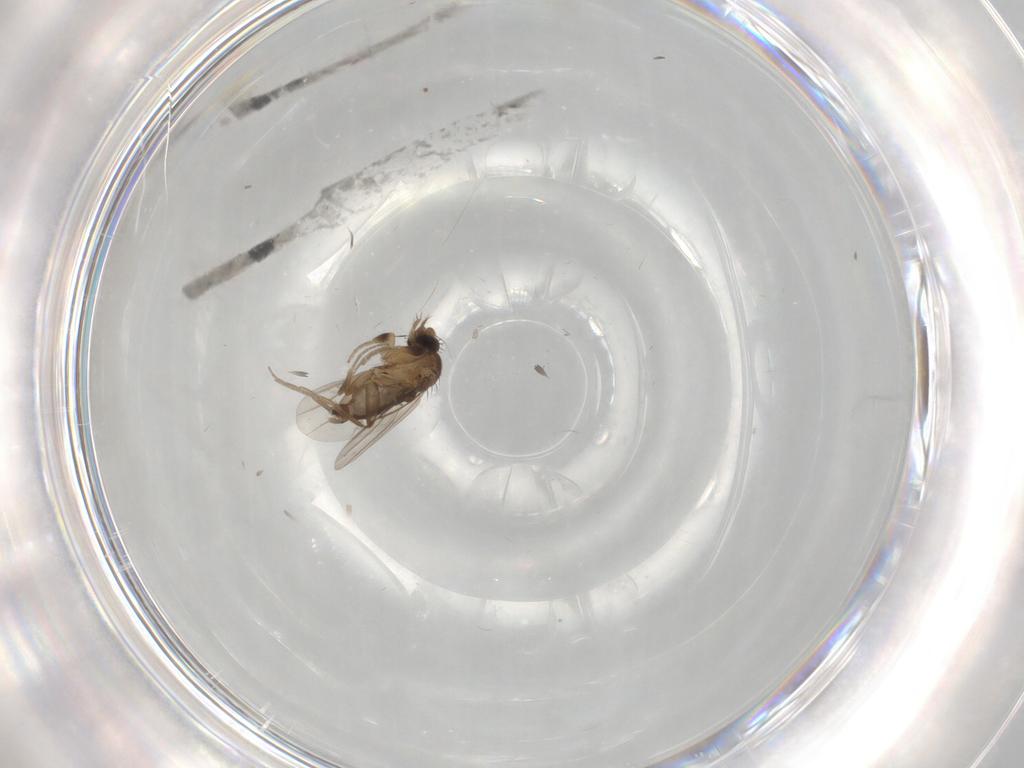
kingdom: Animalia
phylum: Arthropoda
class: Insecta
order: Diptera
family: Phoridae
